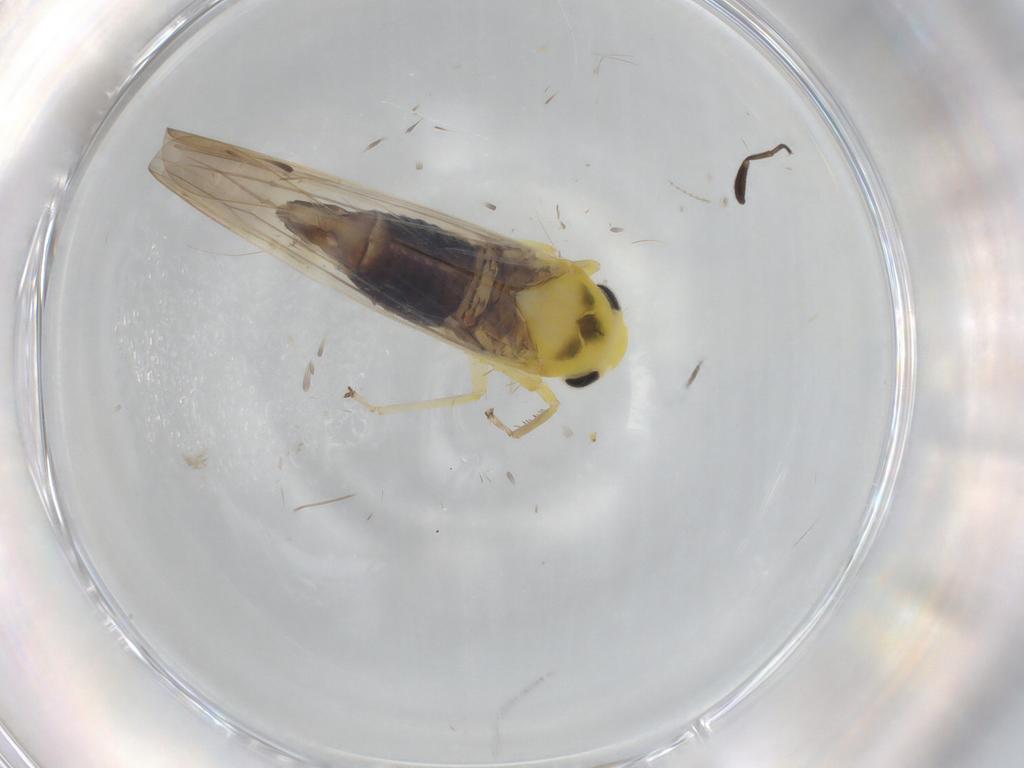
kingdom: Animalia
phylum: Arthropoda
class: Insecta
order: Hemiptera
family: Cicadellidae
